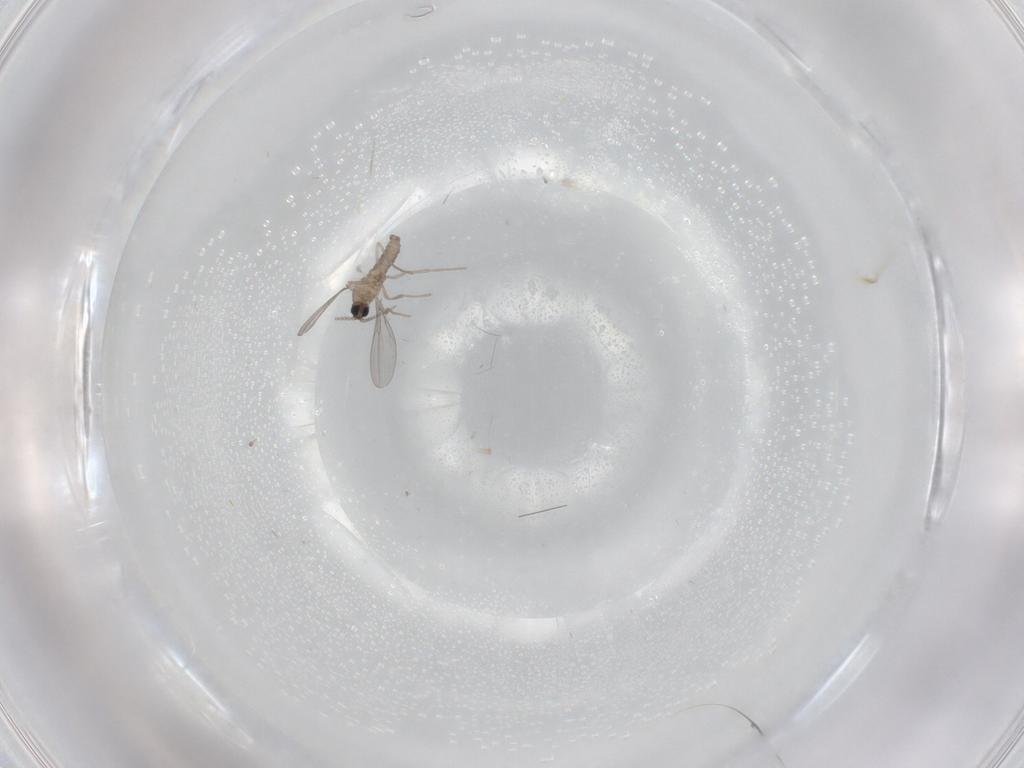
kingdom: Animalia
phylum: Arthropoda
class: Insecta
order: Diptera
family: Cecidomyiidae
